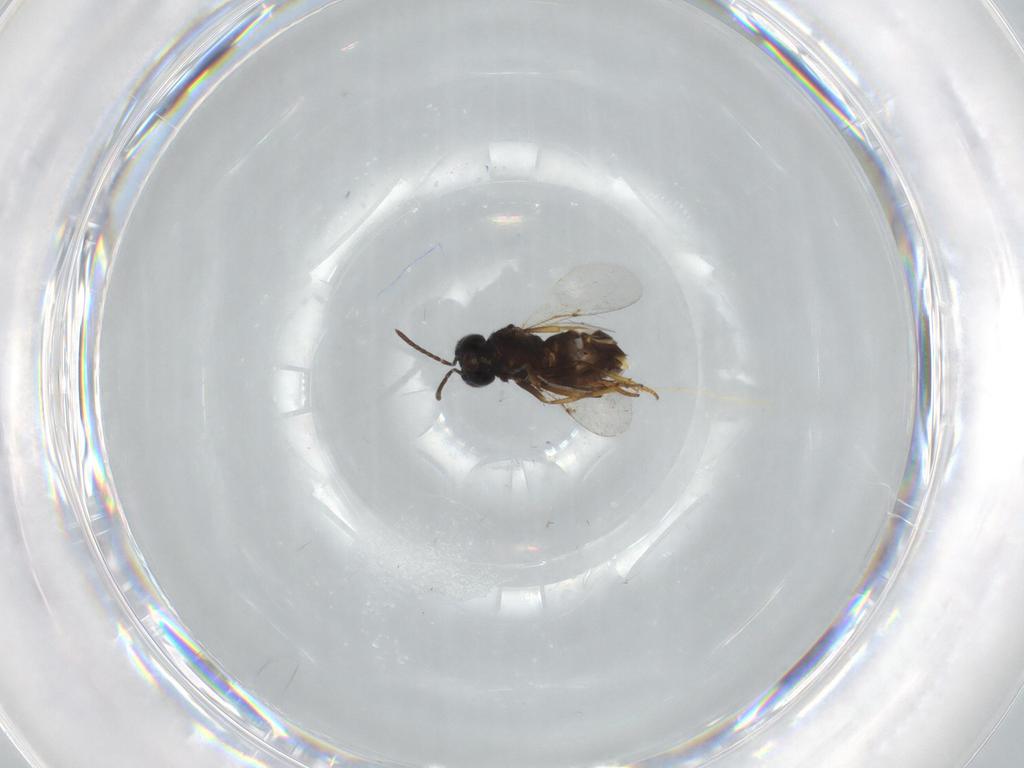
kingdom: Animalia
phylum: Arthropoda
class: Insecta
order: Hymenoptera
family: Encyrtidae
